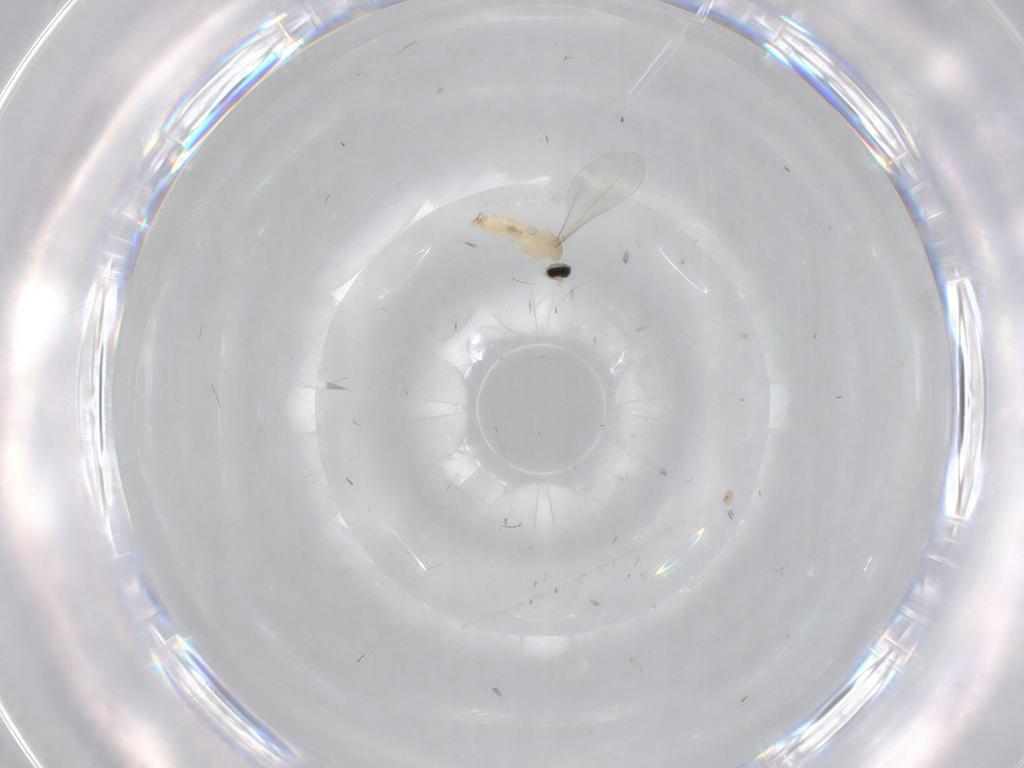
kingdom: Animalia
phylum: Arthropoda
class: Insecta
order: Diptera
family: Cecidomyiidae
